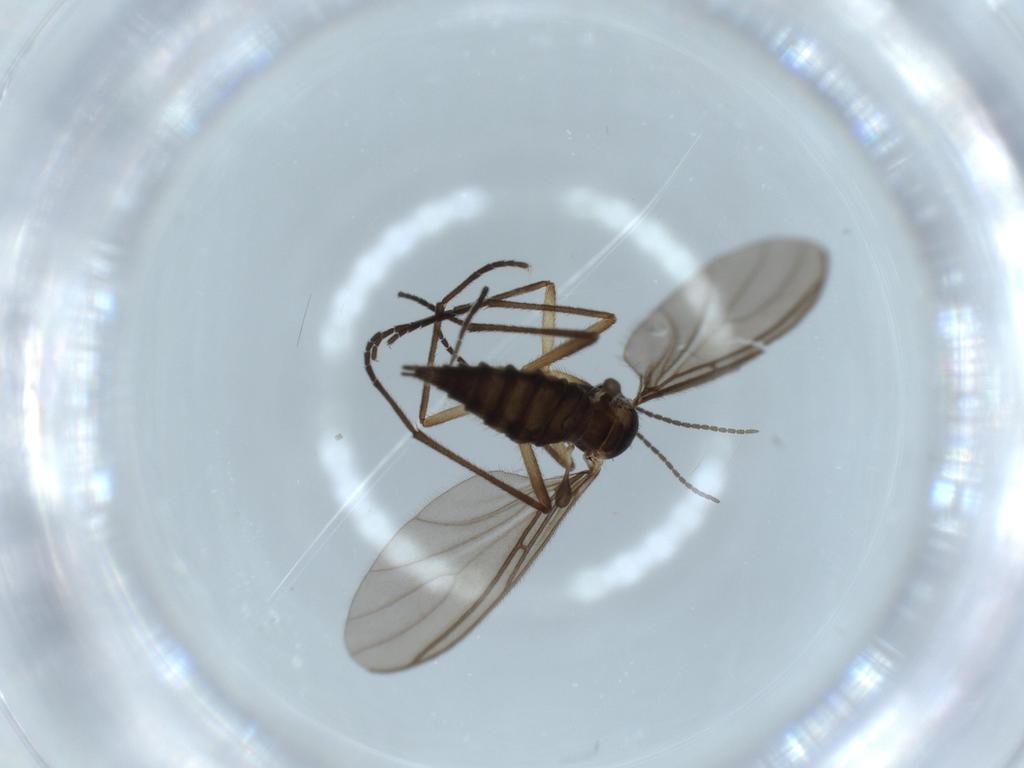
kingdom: Animalia
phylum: Arthropoda
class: Insecta
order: Diptera
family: Sciaridae
